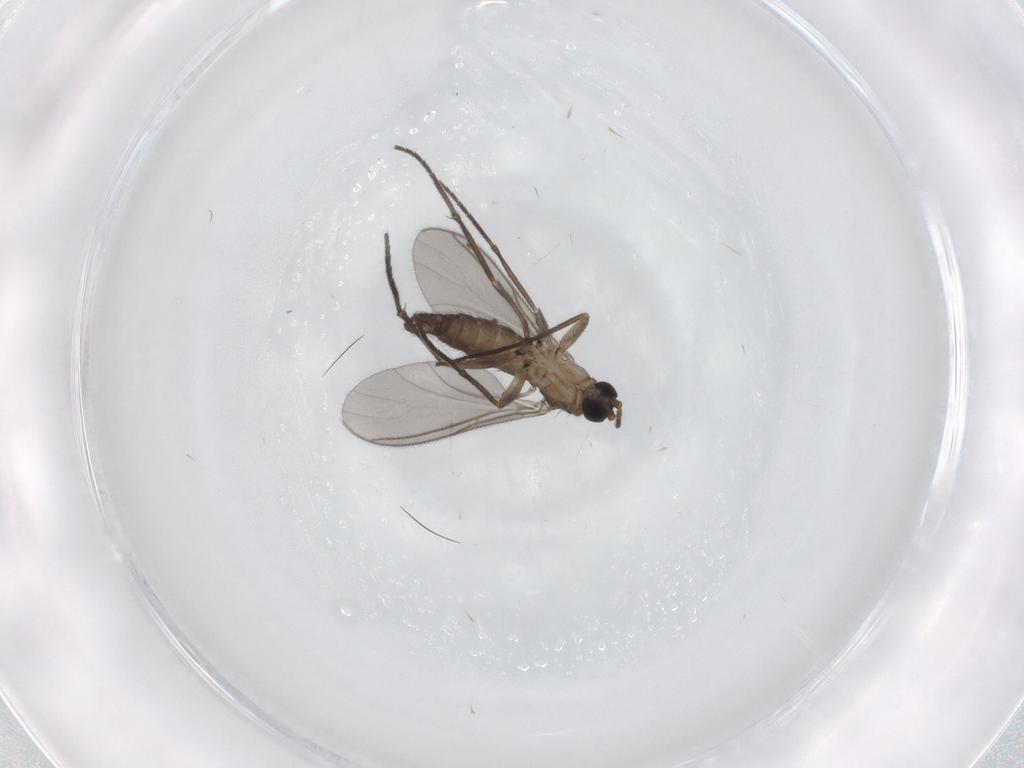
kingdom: Animalia
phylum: Arthropoda
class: Insecta
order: Diptera
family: Sciaridae
